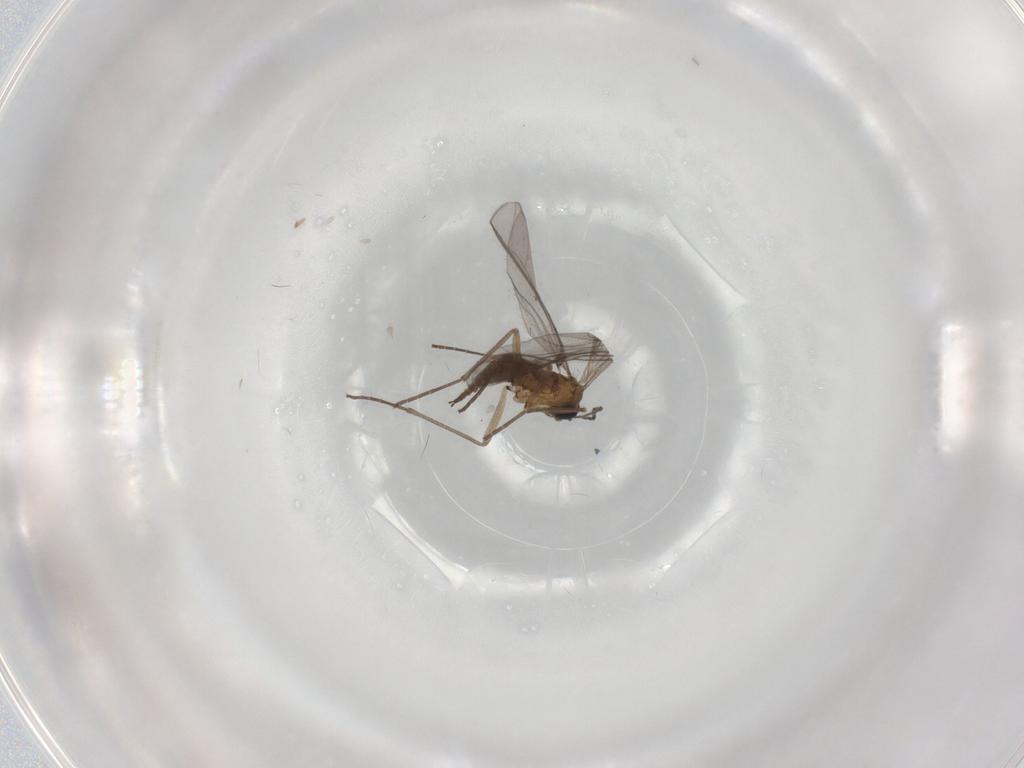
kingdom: Animalia
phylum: Arthropoda
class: Insecta
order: Diptera
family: Sciaridae
